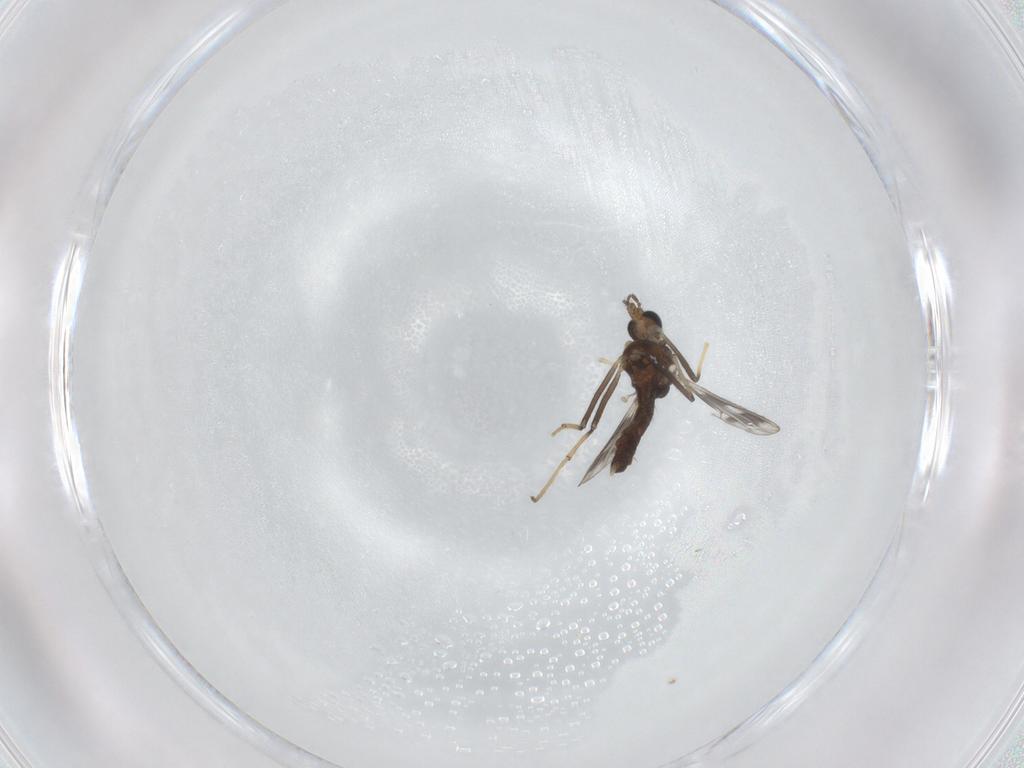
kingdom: Animalia
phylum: Arthropoda
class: Insecta
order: Diptera
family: Chironomidae
